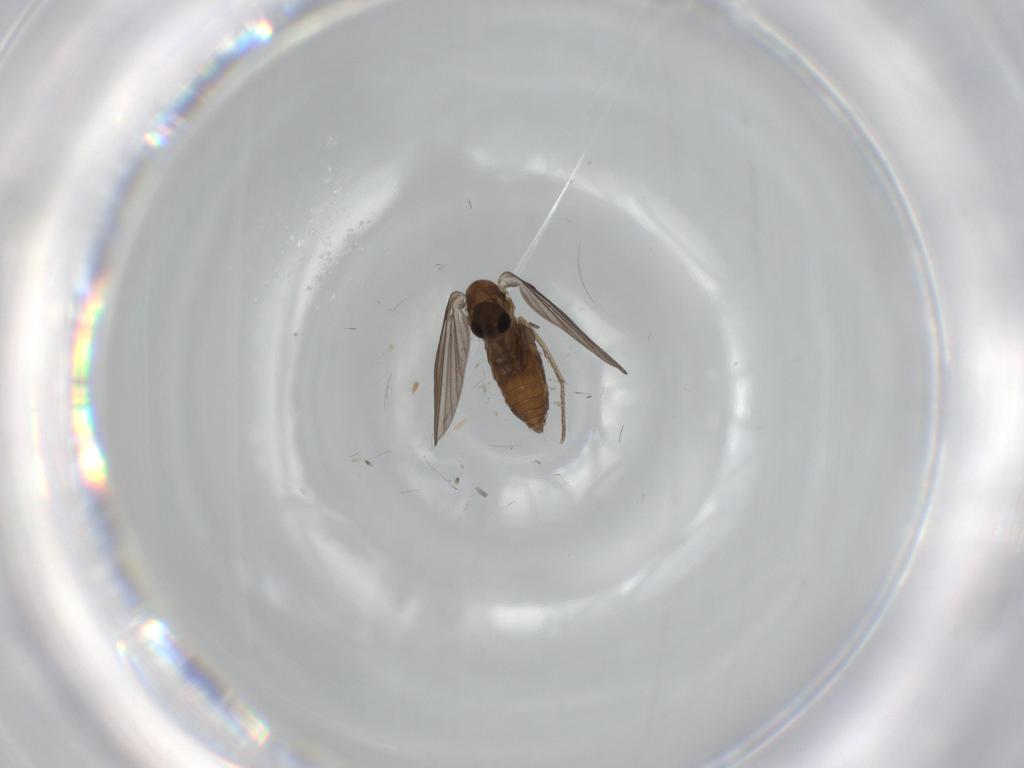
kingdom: Animalia
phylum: Arthropoda
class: Insecta
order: Diptera
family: Psychodidae
